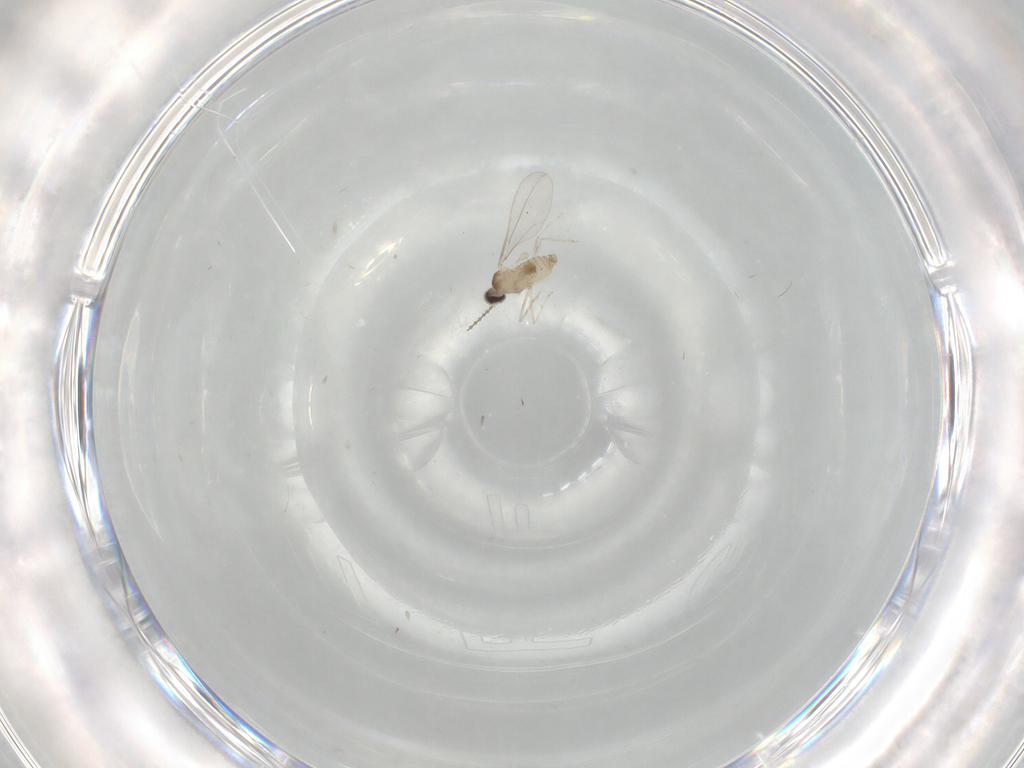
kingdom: Animalia
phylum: Arthropoda
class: Insecta
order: Diptera
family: Cecidomyiidae
